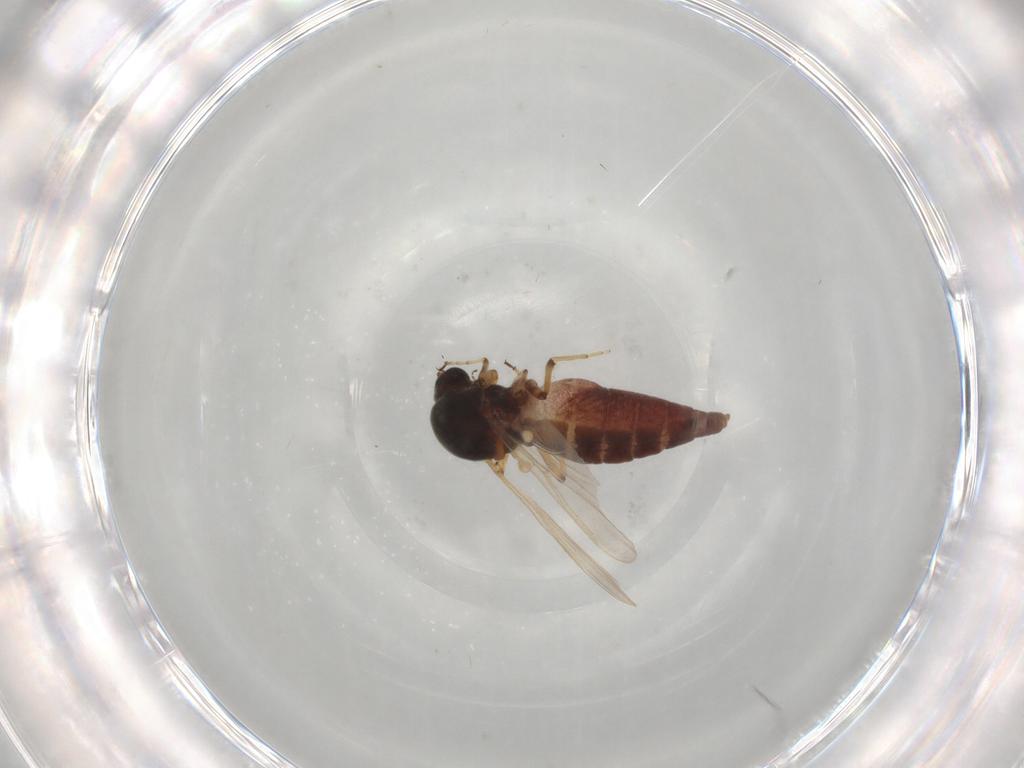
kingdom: Animalia
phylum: Arthropoda
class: Insecta
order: Diptera
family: Ceratopogonidae
